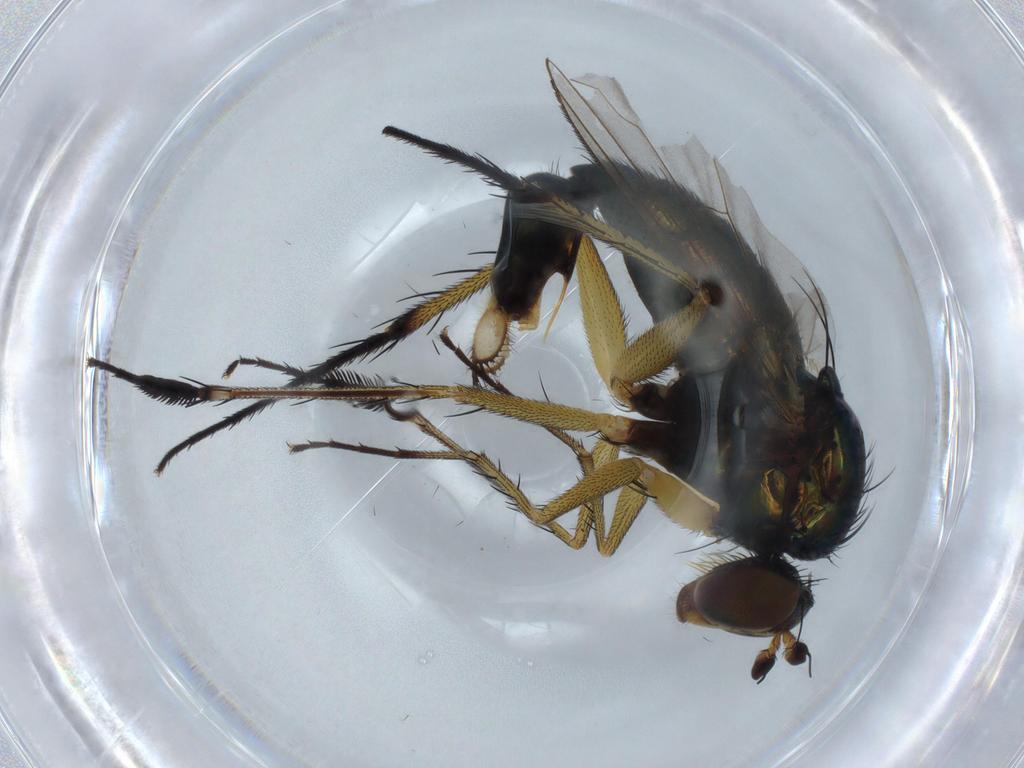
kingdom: Animalia
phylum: Arthropoda
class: Insecta
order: Diptera
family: Dolichopodidae
